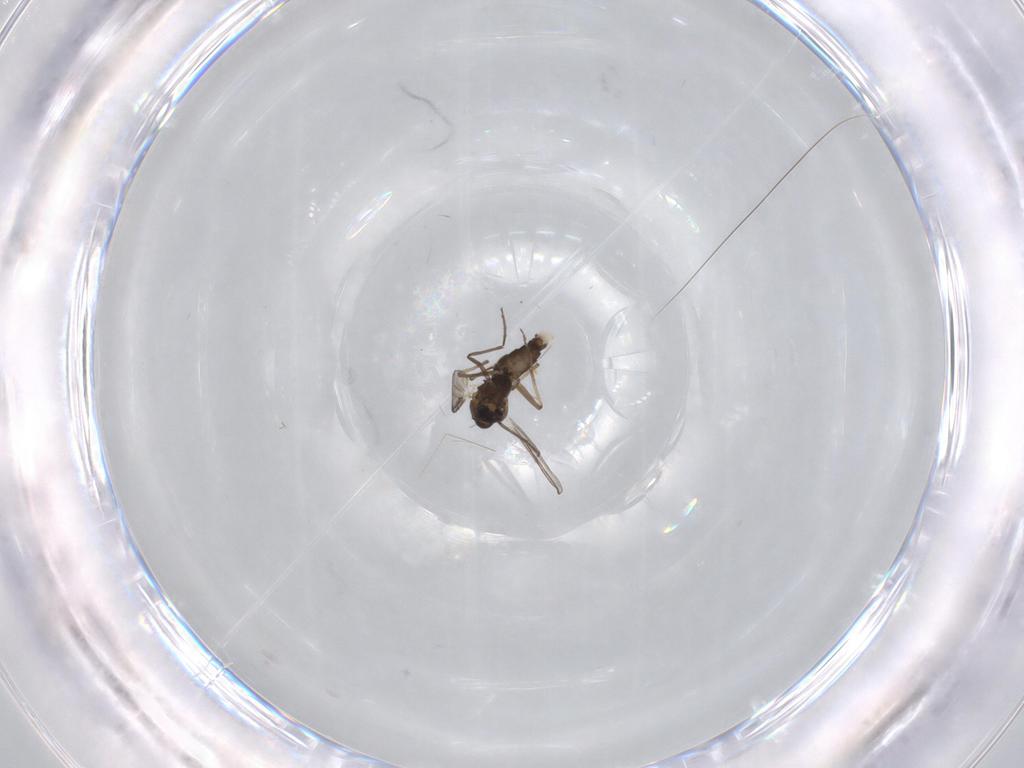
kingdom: Animalia
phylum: Arthropoda
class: Insecta
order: Diptera
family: Chironomidae
